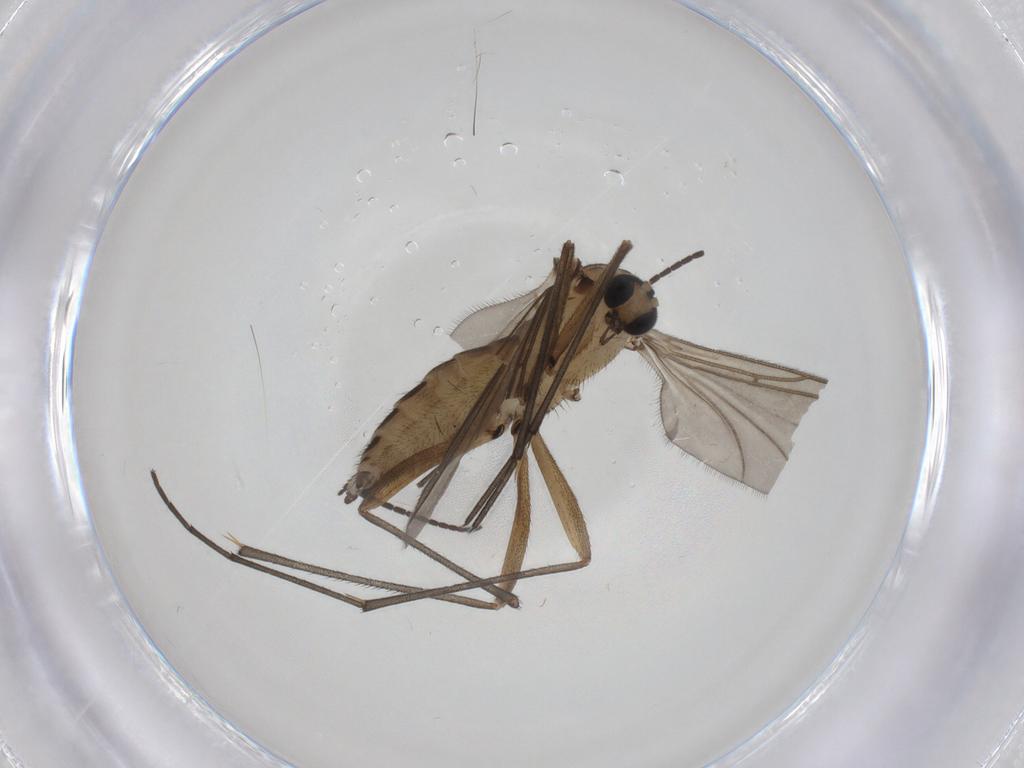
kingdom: Animalia
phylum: Arthropoda
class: Insecta
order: Diptera
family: Sciaridae
